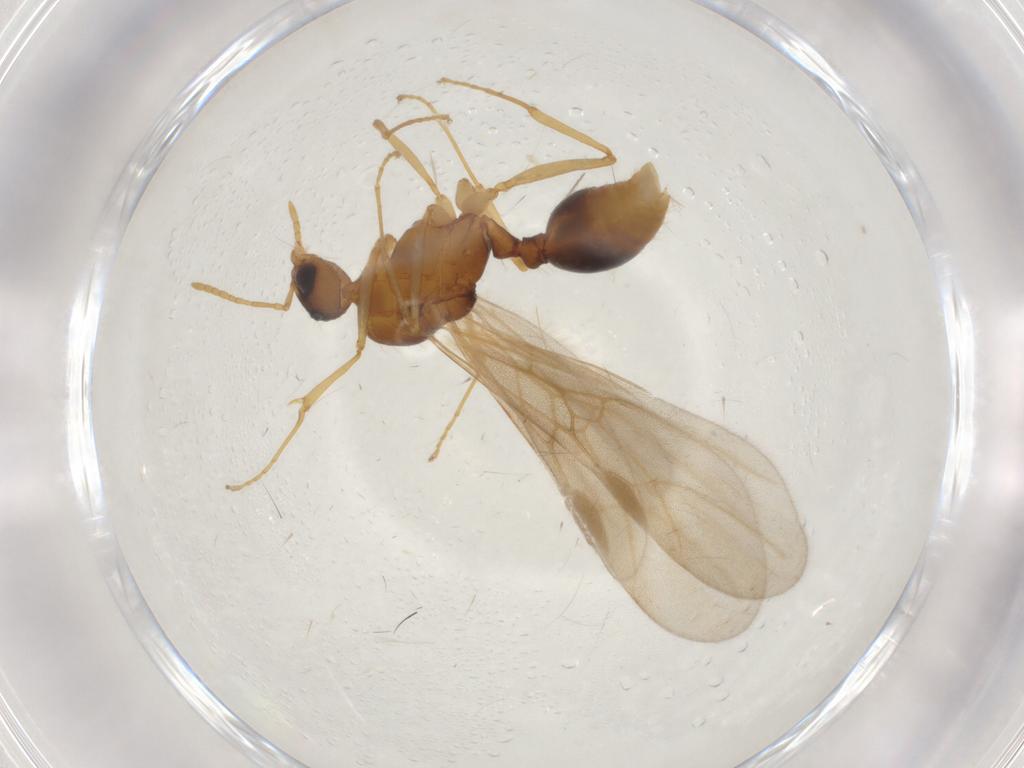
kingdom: Animalia
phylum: Arthropoda
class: Insecta
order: Hymenoptera
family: Formicidae
